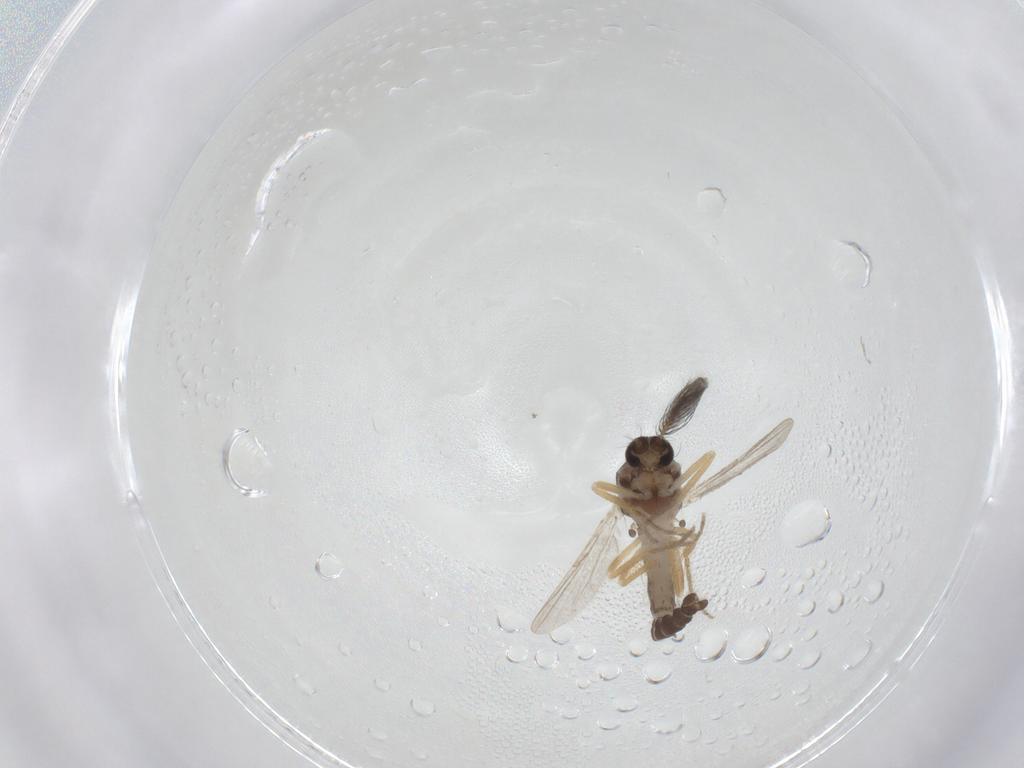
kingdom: Animalia
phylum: Arthropoda
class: Insecta
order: Diptera
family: Ceratopogonidae
